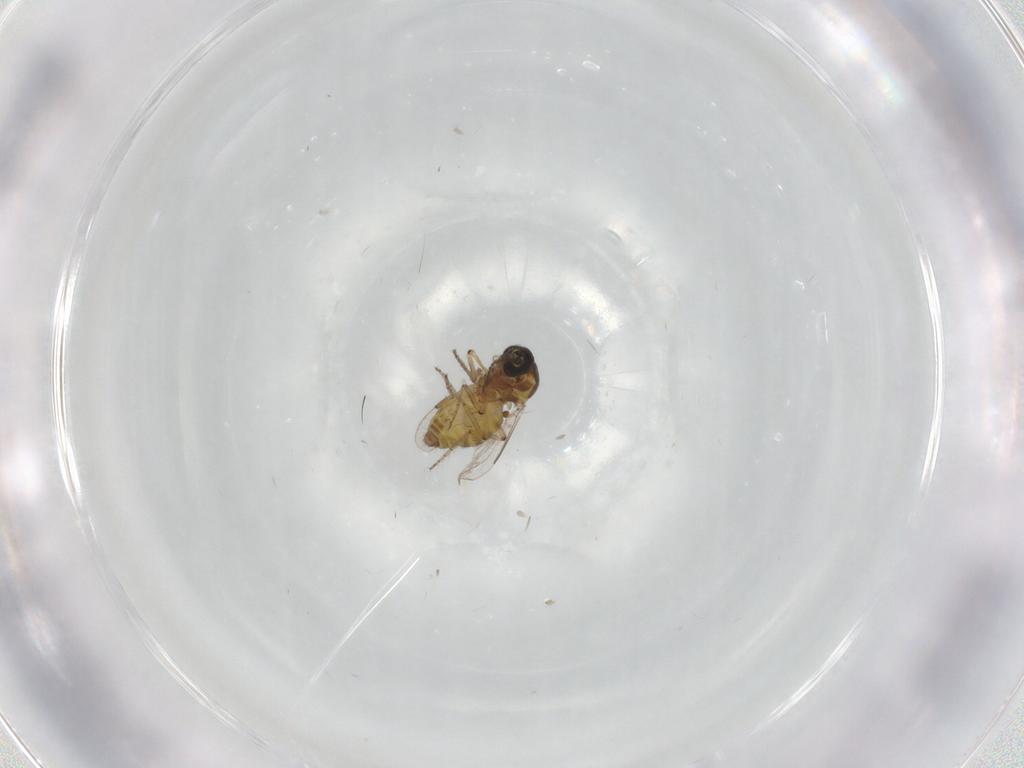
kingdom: Animalia
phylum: Arthropoda
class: Insecta
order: Diptera
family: Ceratopogonidae
